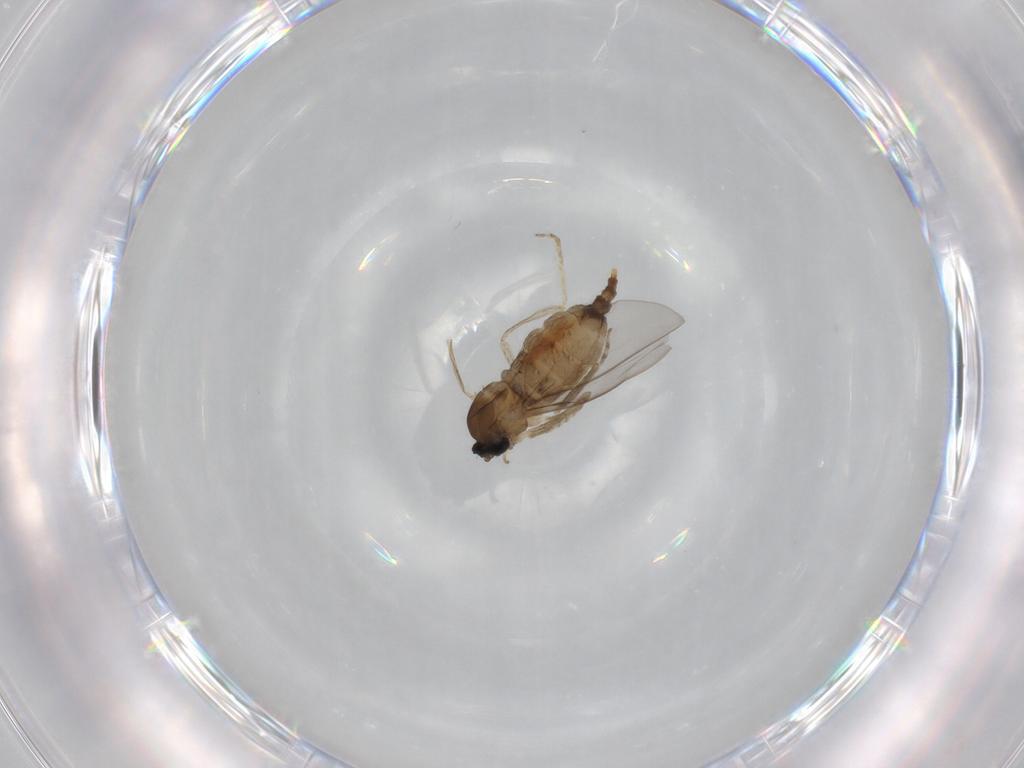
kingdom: Animalia
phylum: Arthropoda
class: Insecta
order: Diptera
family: Cecidomyiidae
